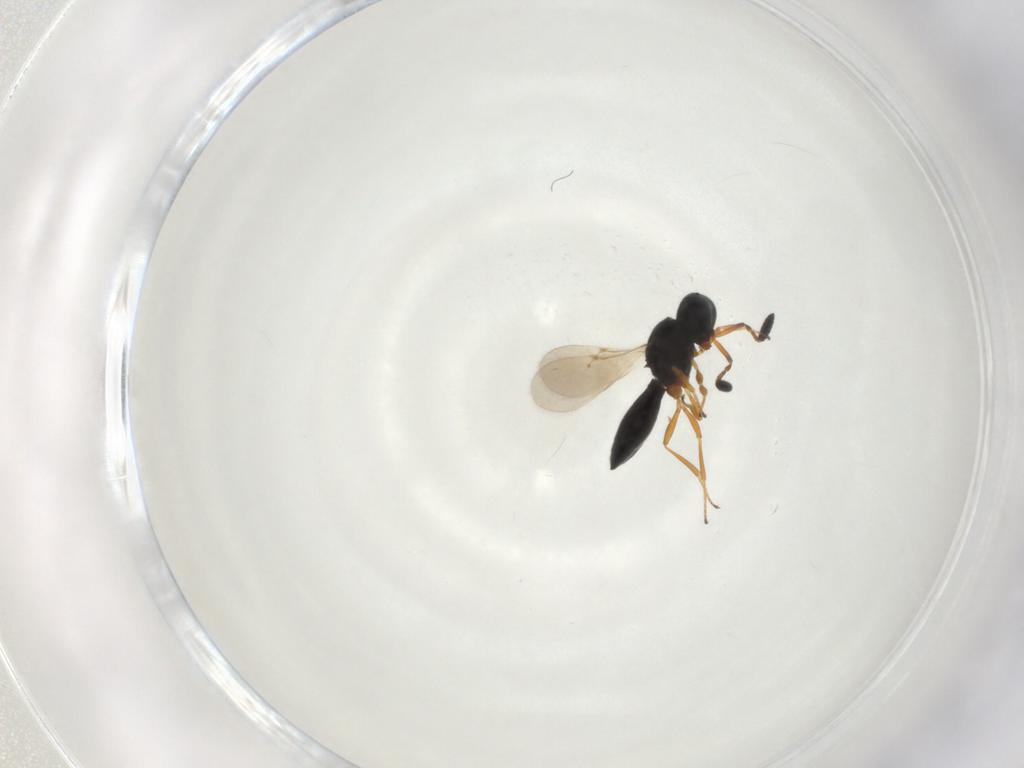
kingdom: Animalia
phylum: Arthropoda
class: Insecta
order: Hymenoptera
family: Scelionidae
